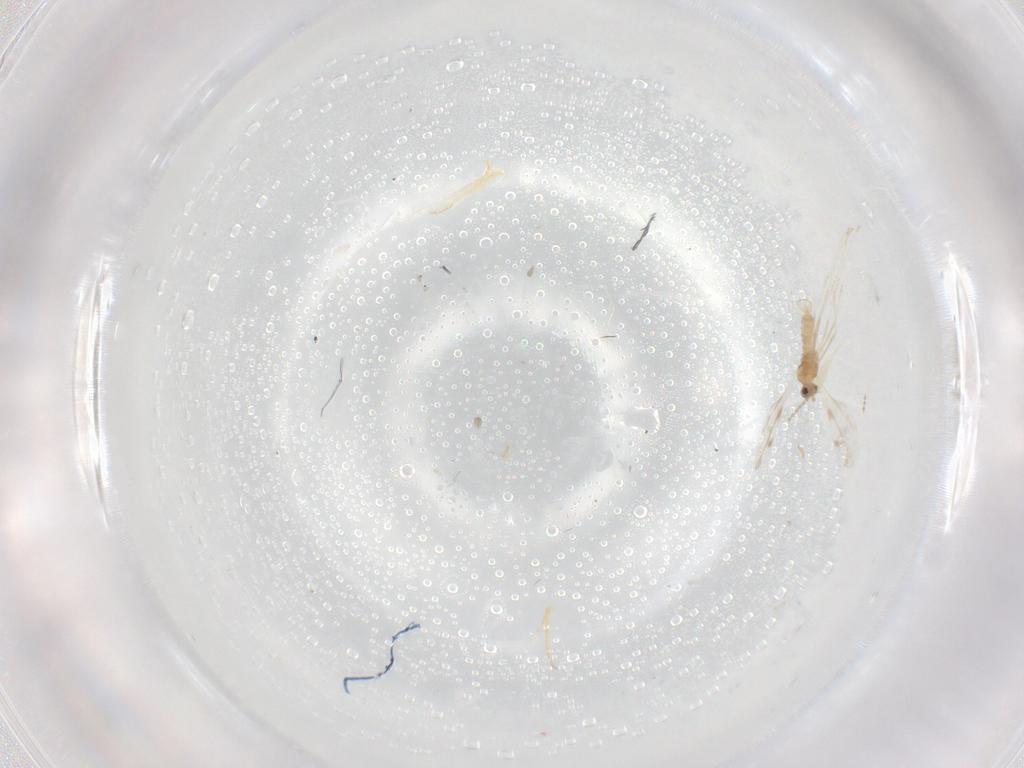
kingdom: Animalia
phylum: Arthropoda
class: Insecta
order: Diptera
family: Cecidomyiidae
